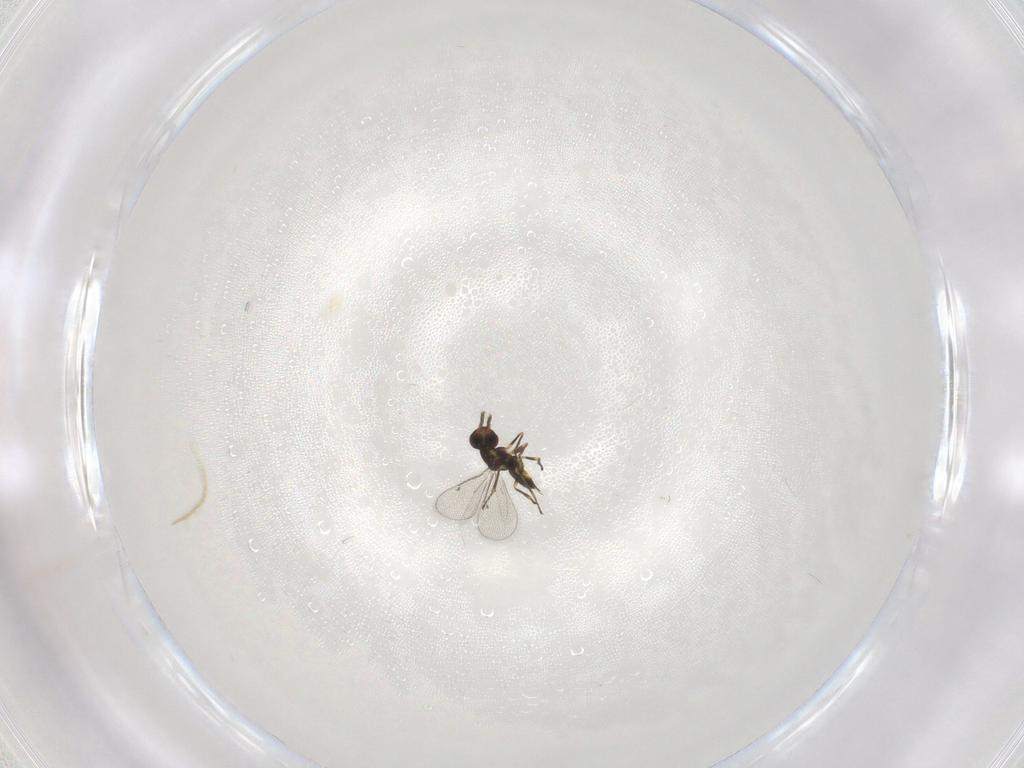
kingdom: Animalia
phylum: Arthropoda
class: Insecta
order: Hymenoptera
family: Eulophidae
